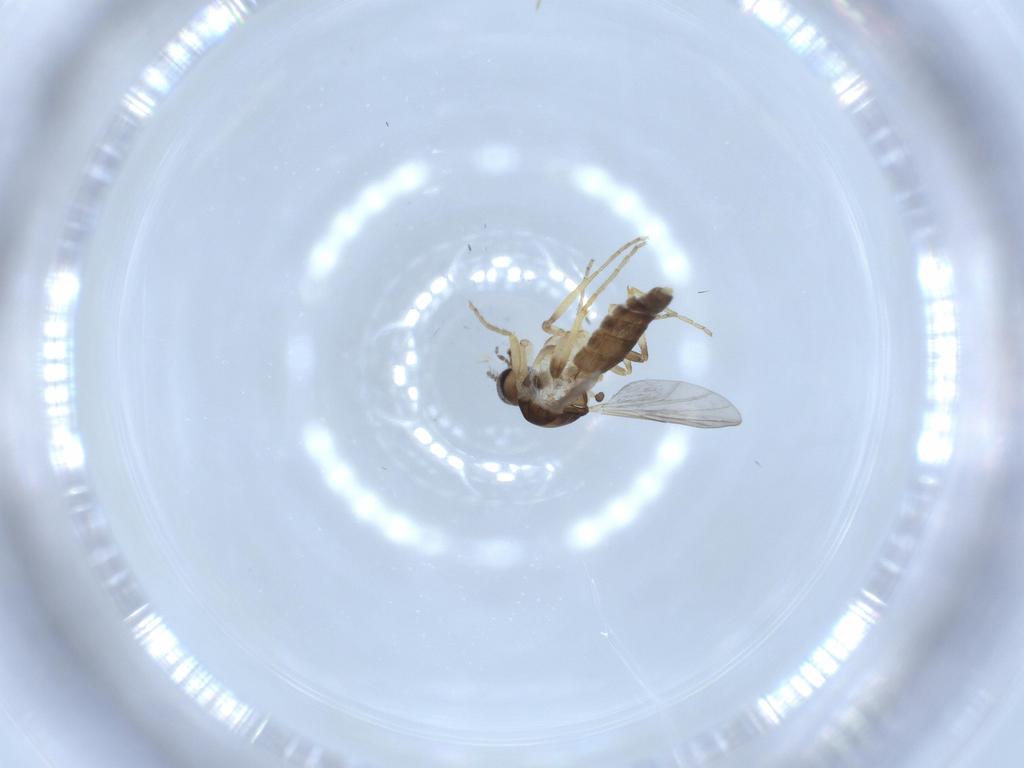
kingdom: Animalia
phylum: Arthropoda
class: Insecta
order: Diptera
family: Ceratopogonidae
